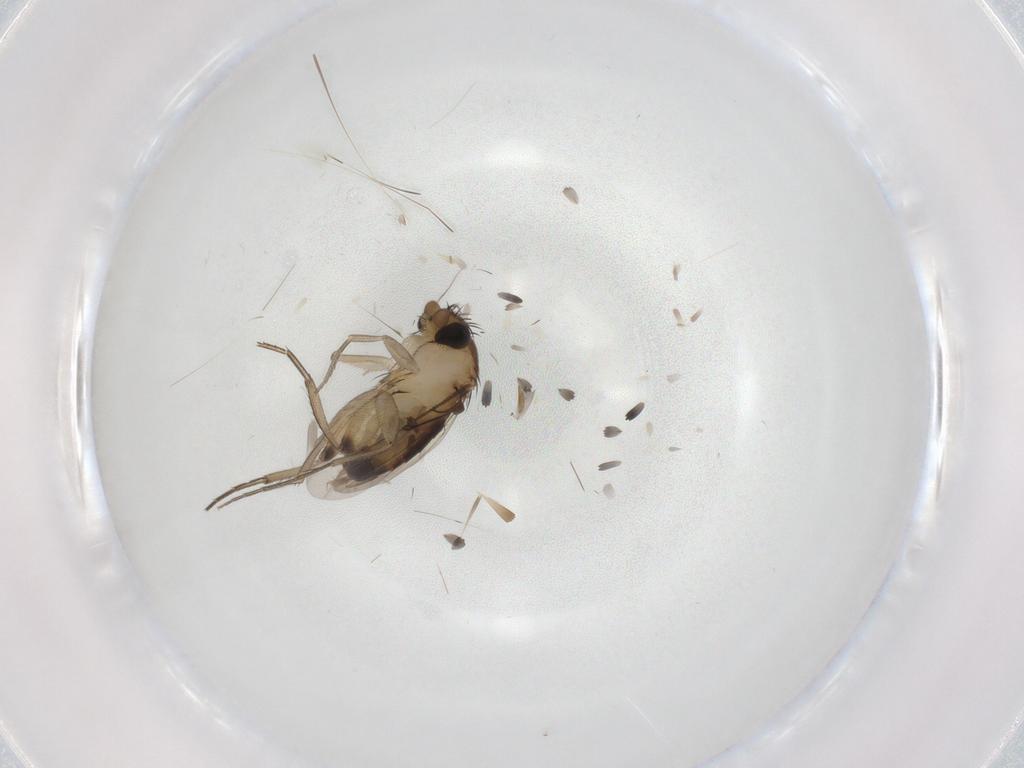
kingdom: Animalia
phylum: Arthropoda
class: Insecta
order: Diptera
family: Phoridae
